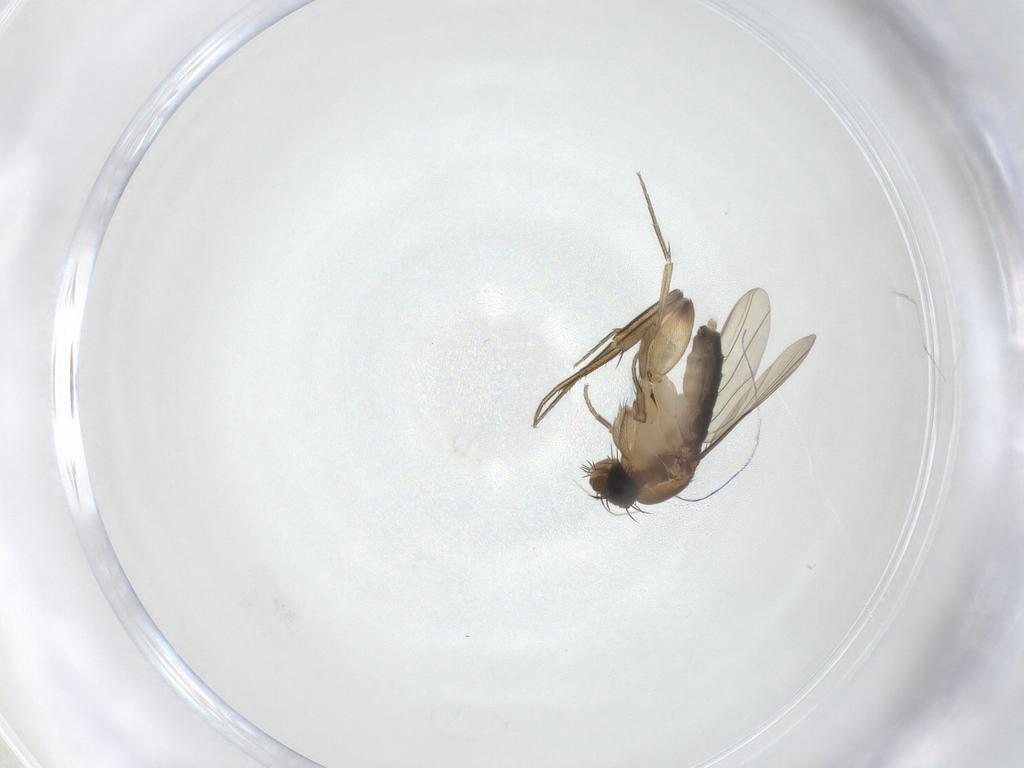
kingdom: Animalia
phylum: Arthropoda
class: Insecta
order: Diptera
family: Phoridae
